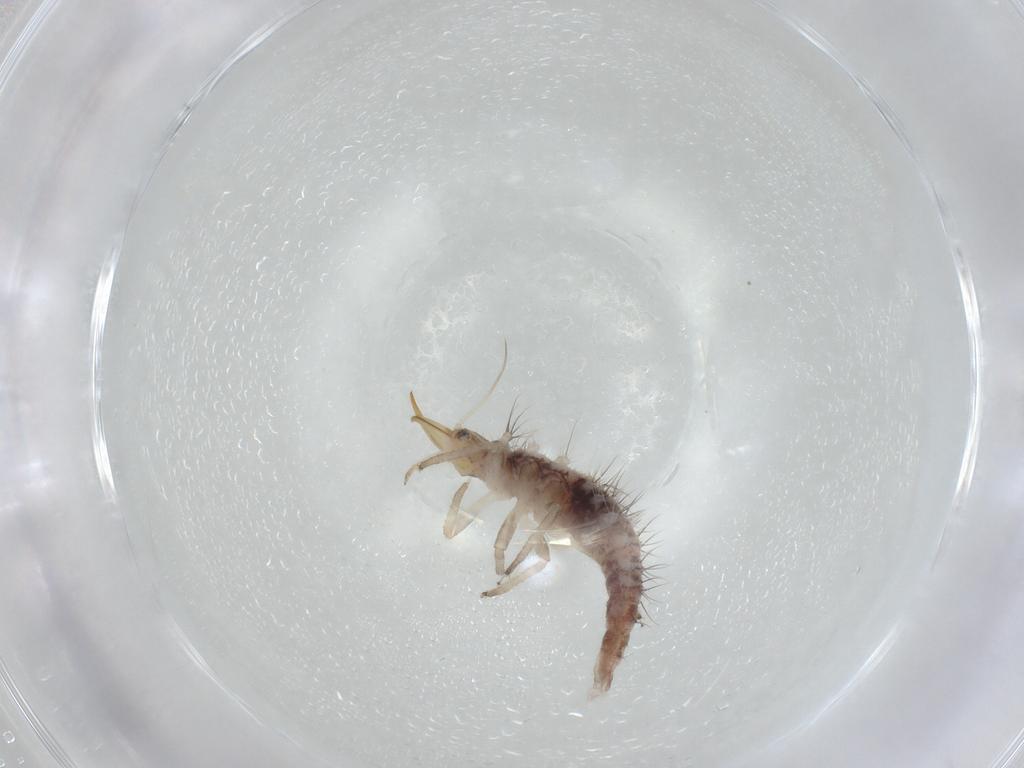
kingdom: Animalia
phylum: Arthropoda
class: Insecta
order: Neuroptera
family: Chrysopidae
